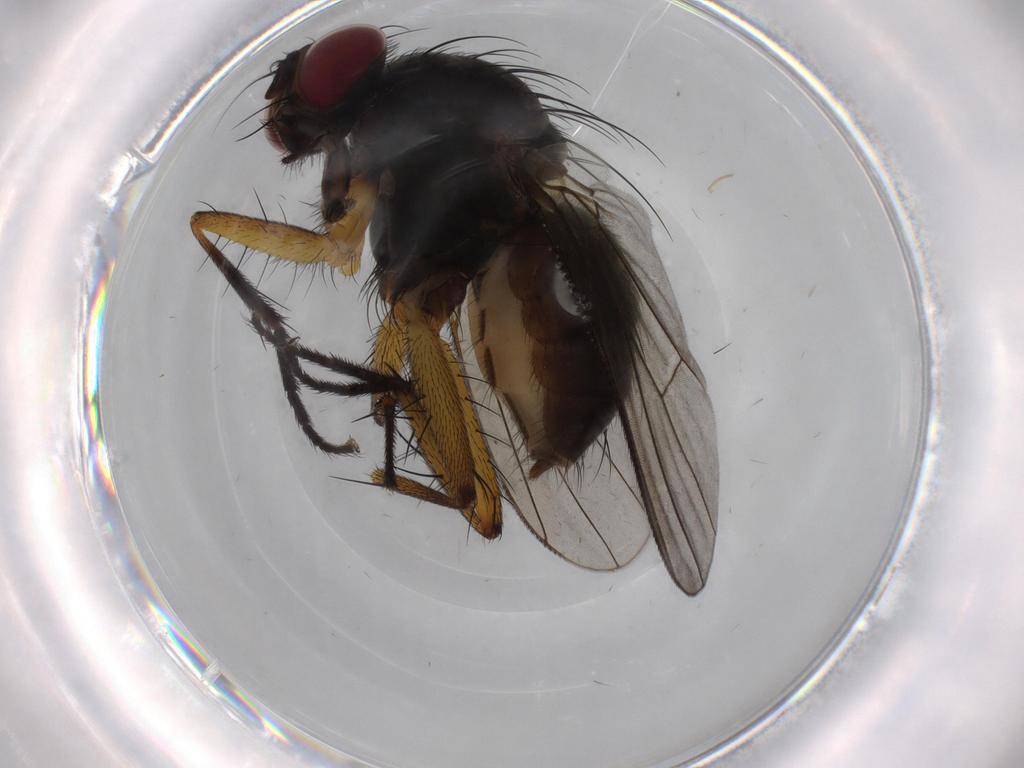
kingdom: Animalia
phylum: Arthropoda
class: Insecta
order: Diptera
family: Muscidae
